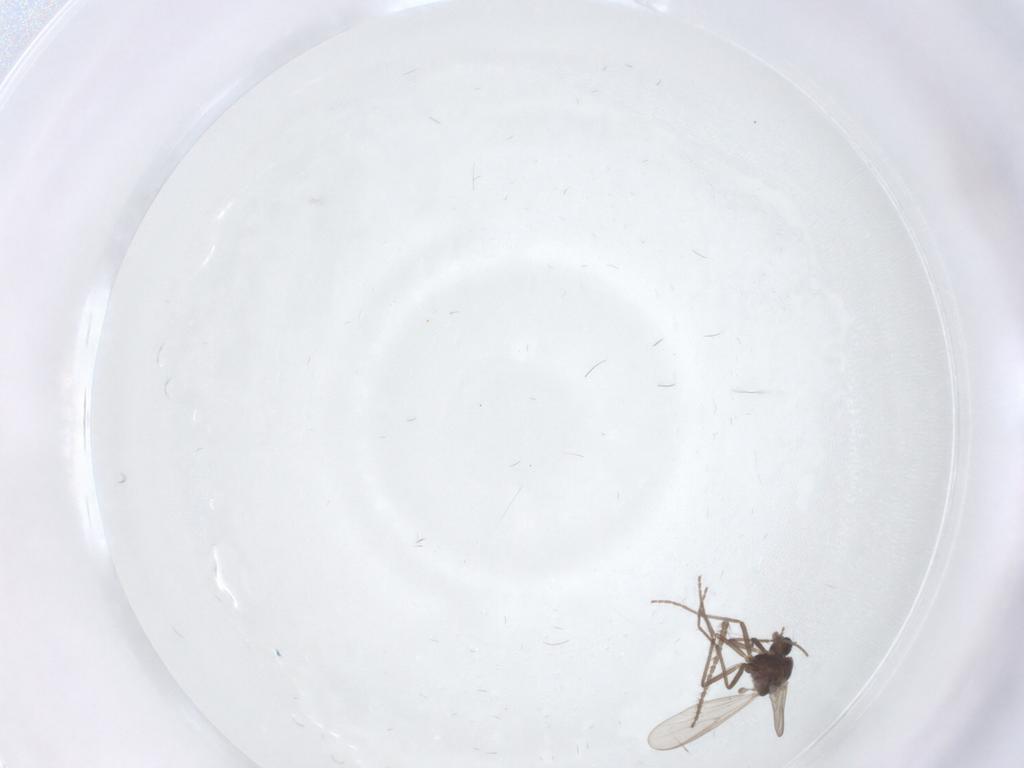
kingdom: Animalia
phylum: Arthropoda
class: Insecta
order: Diptera
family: Chironomidae
